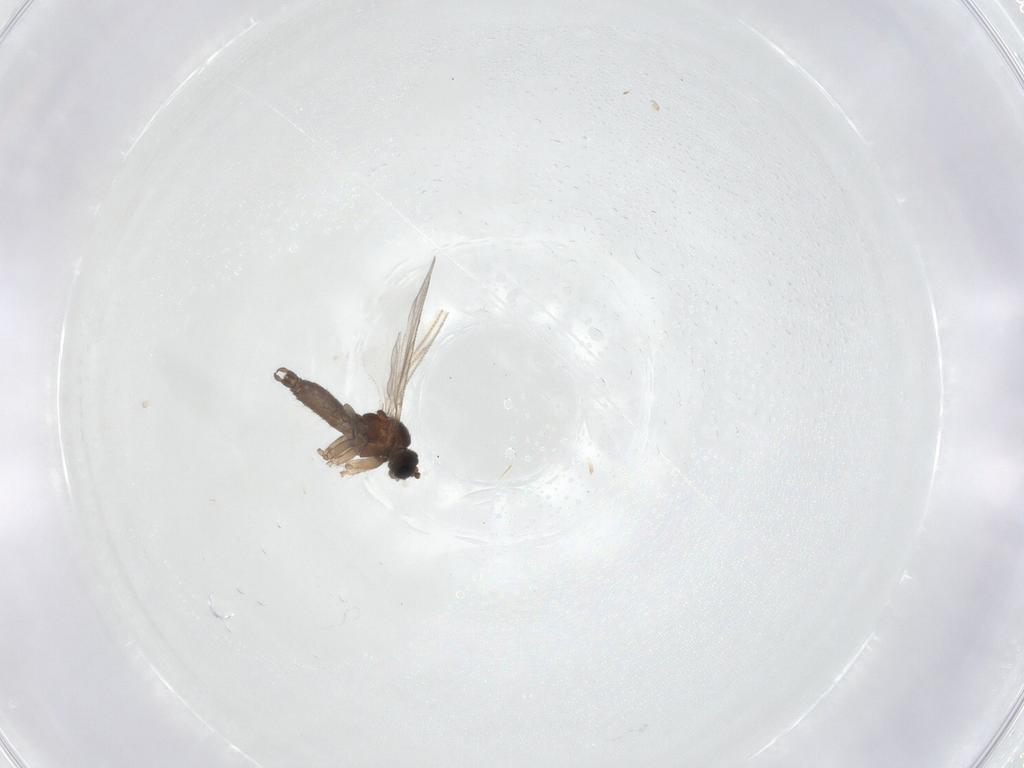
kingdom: Animalia
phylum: Arthropoda
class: Insecta
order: Diptera
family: Sciaridae
